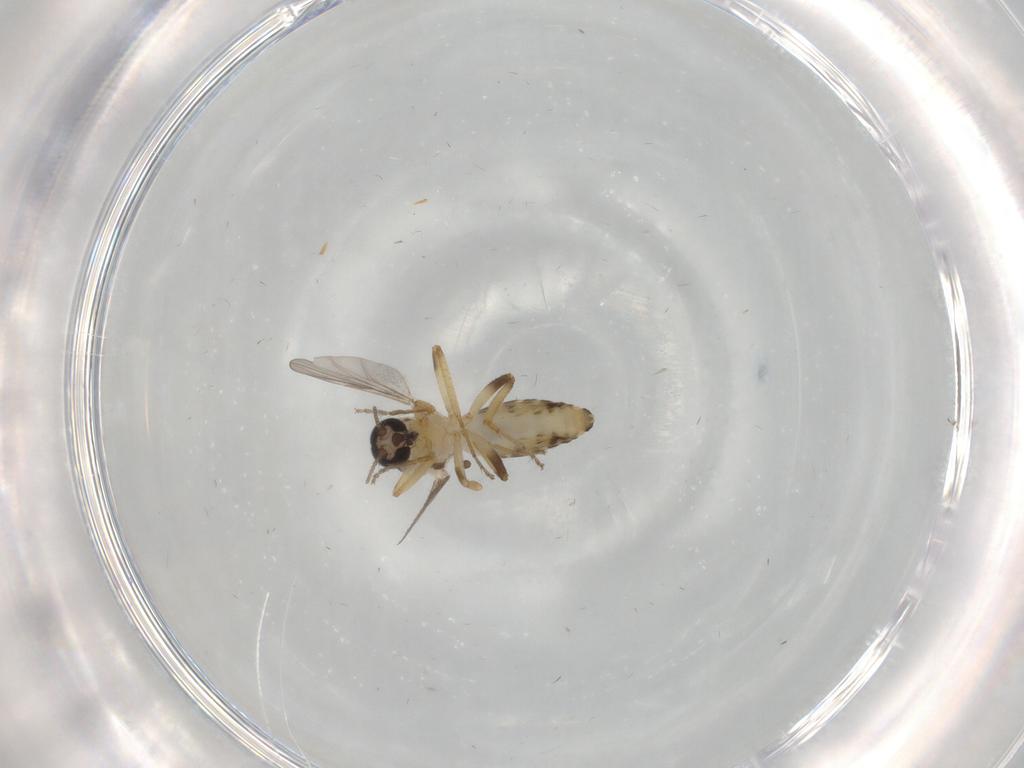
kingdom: Animalia
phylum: Arthropoda
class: Insecta
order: Diptera
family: Ceratopogonidae
